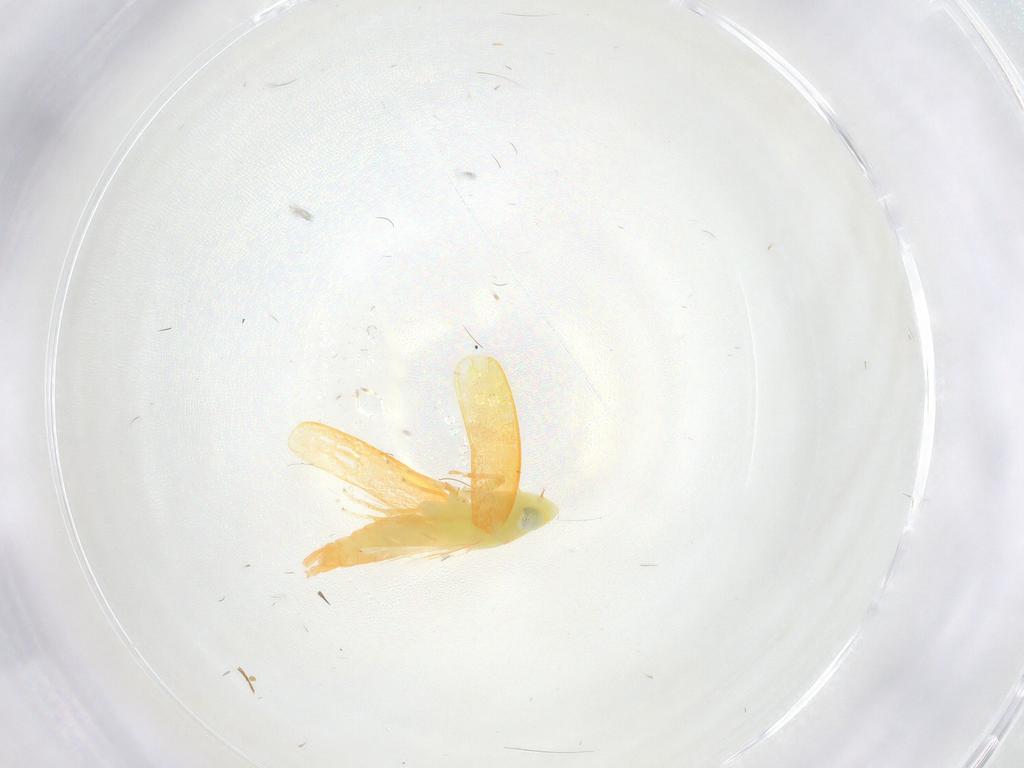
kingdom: Animalia
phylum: Arthropoda
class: Insecta
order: Hemiptera
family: Cicadellidae
